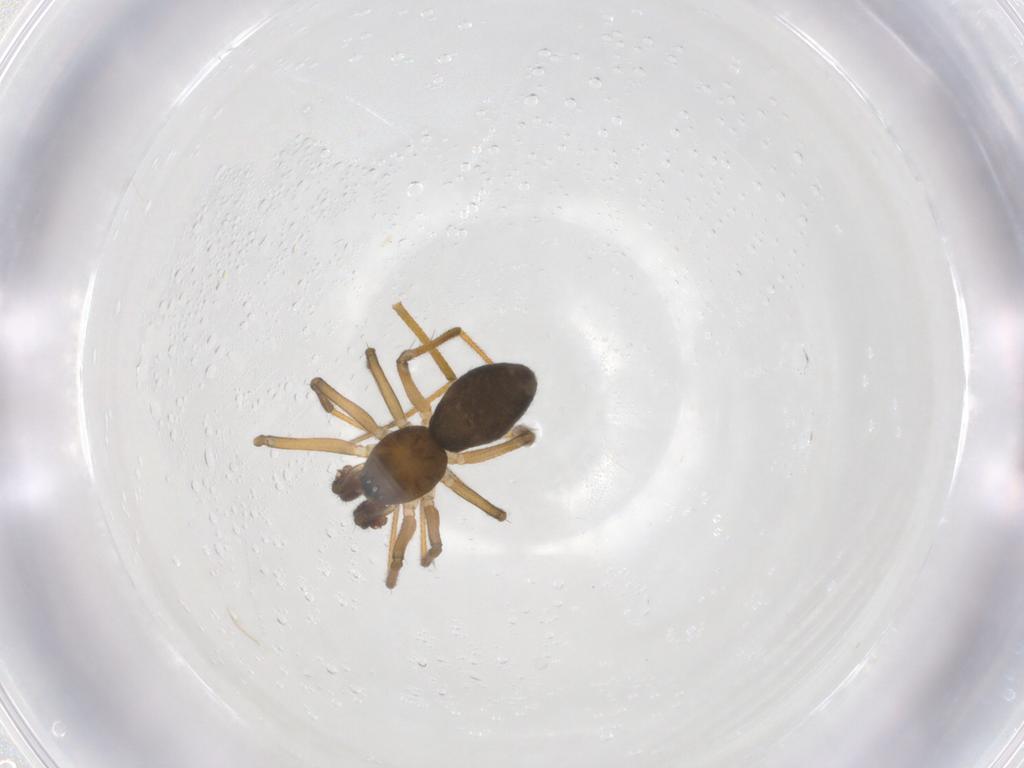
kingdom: Animalia
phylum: Arthropoda
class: Arachnida
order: Araneae
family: Linyphiidae
